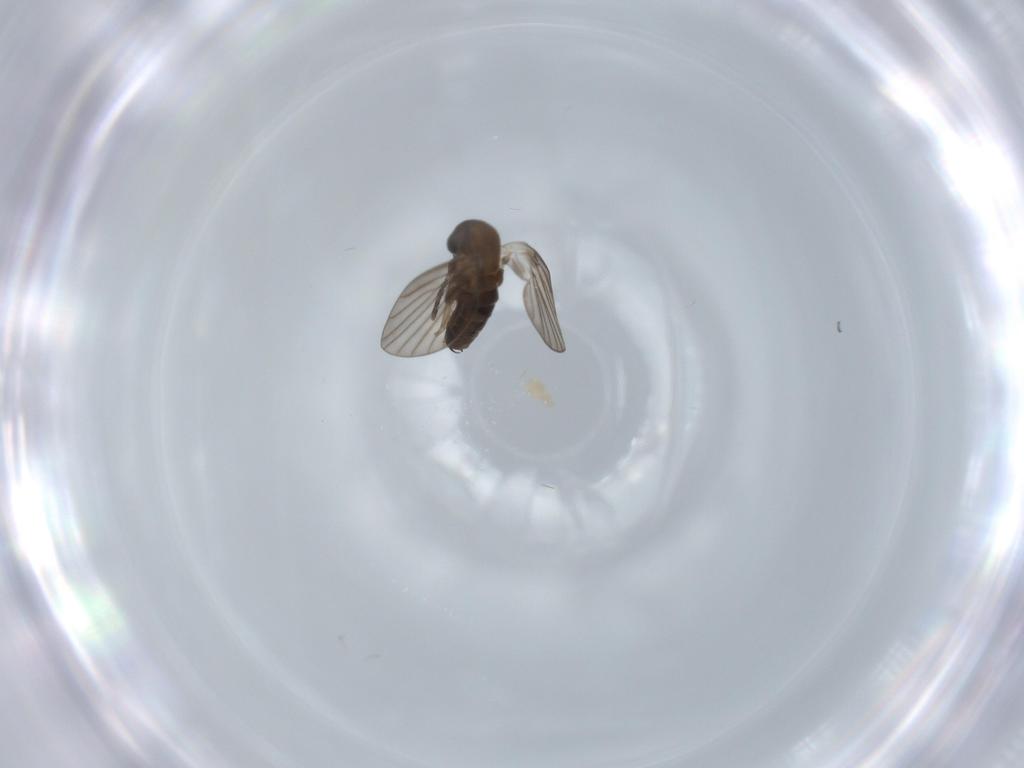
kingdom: Animalia
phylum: Arthropoda
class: Insecta
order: Diptera
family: Psychodidae
